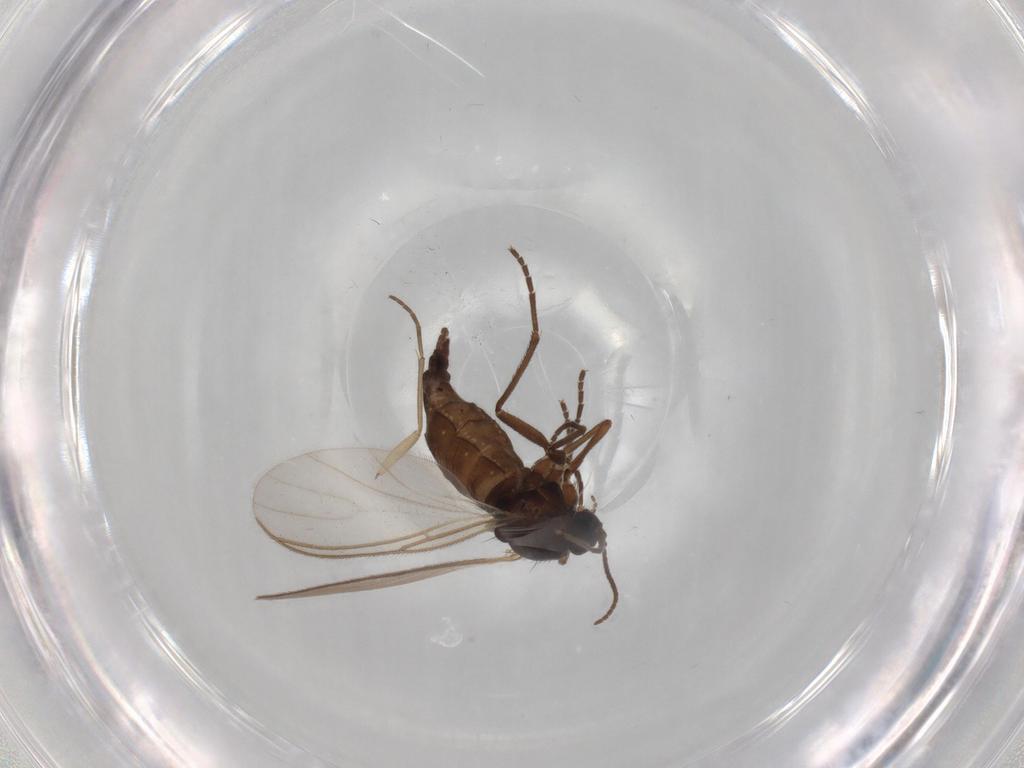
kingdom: Animalia
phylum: Arthropoda
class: Insecta
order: Diptera
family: Sciaridae
